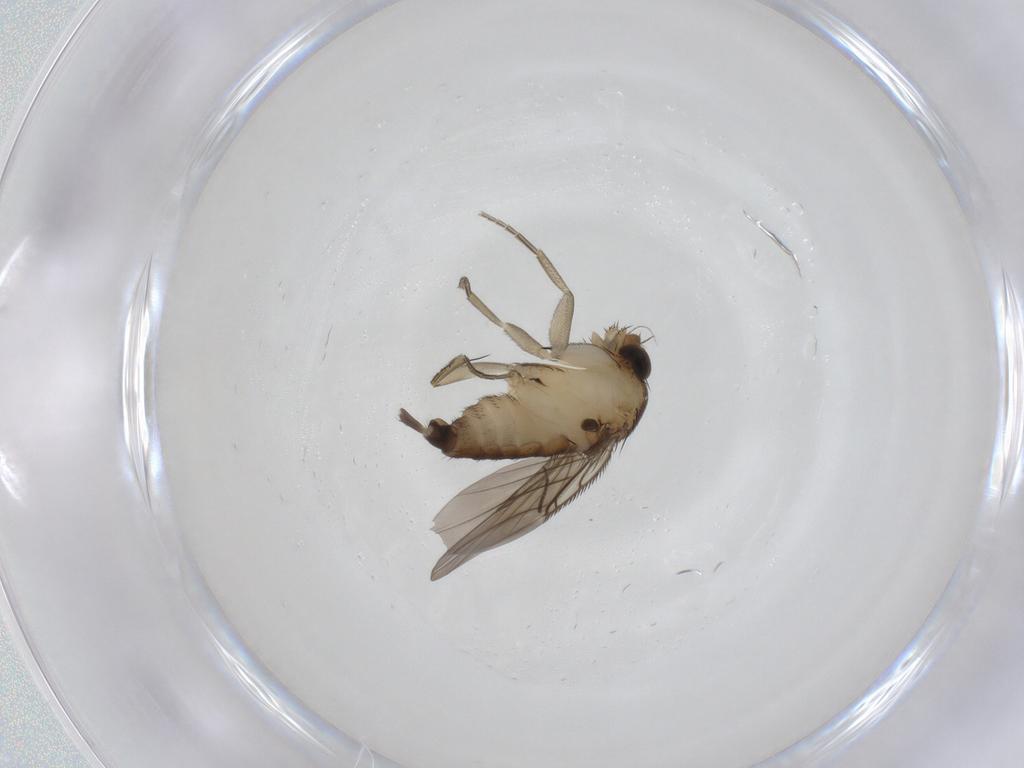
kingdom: Animalia
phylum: Arthropoda
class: Insecta
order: Diptera
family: Phoridae
